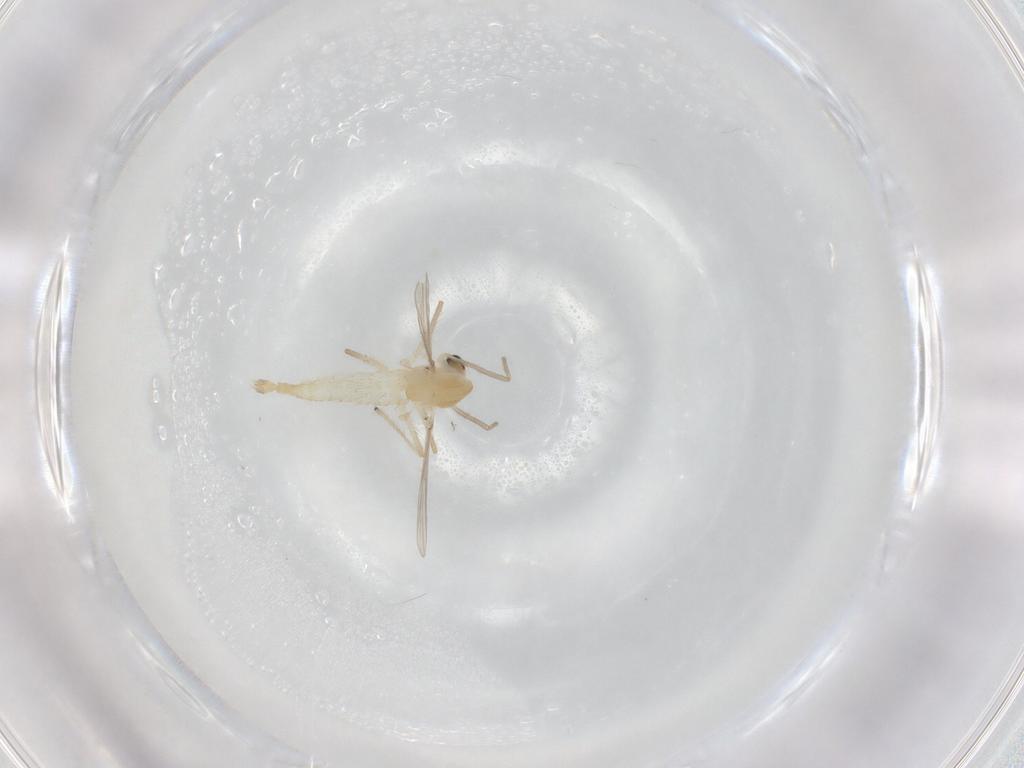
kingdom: Animalia
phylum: Arthropoda
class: Insecta
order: Diptera
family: Chironomidae
